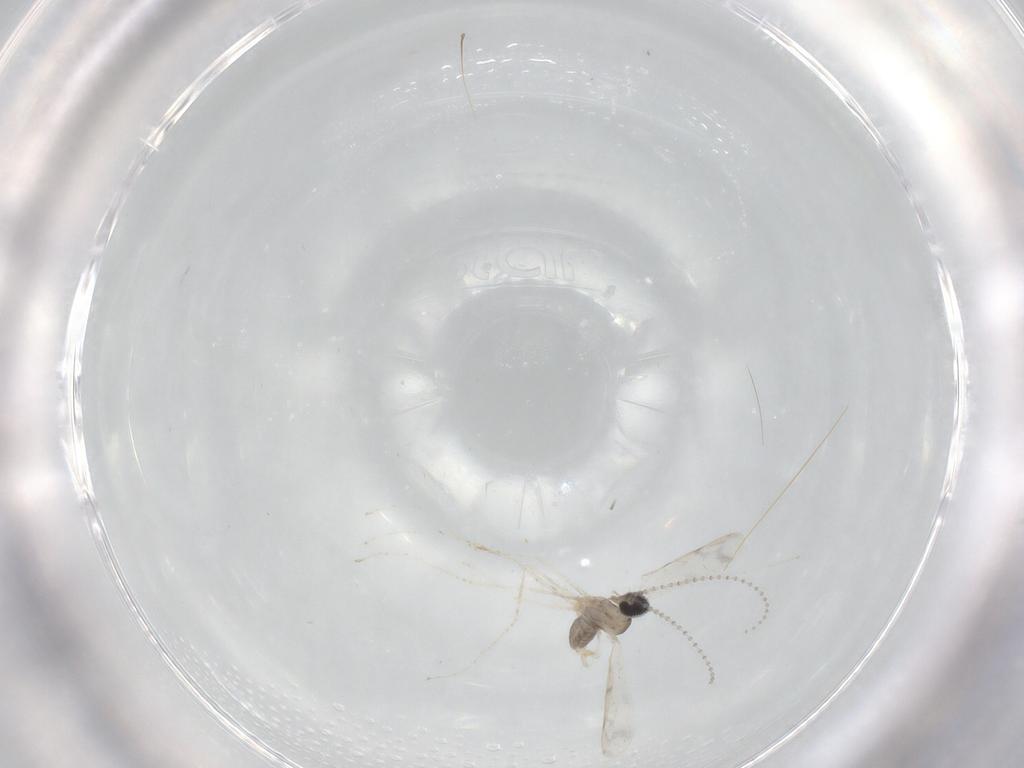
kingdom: Animalia
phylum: Arthropoda
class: Insecta
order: Diptera
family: Cecidomyiidae
